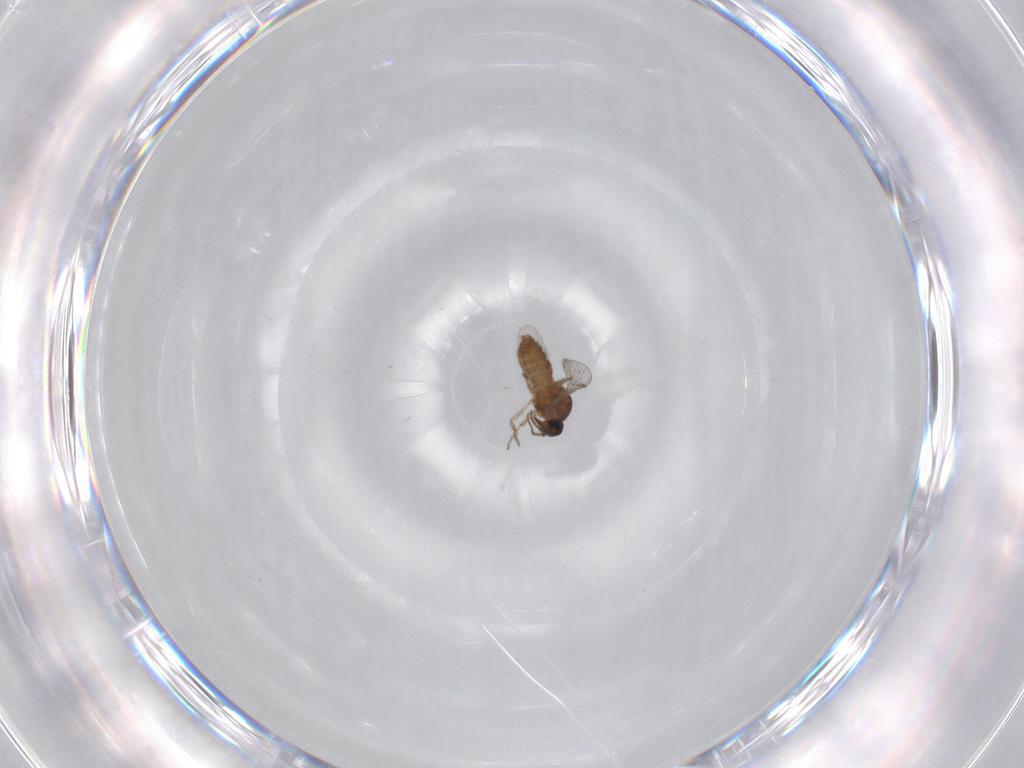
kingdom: Animalia
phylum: Arthropoda
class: Insecta
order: Diptera
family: Ceratopogonidae
